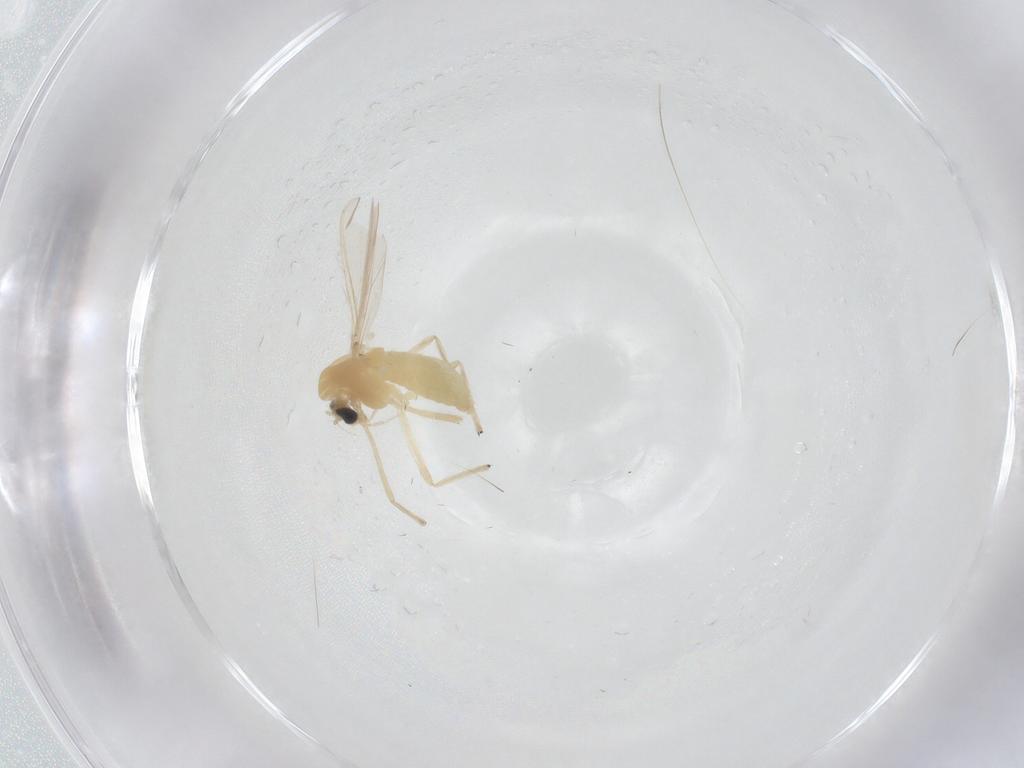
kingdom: Animalia
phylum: Arthropoda
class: Insecta
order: Diptera
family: Chironomidae
